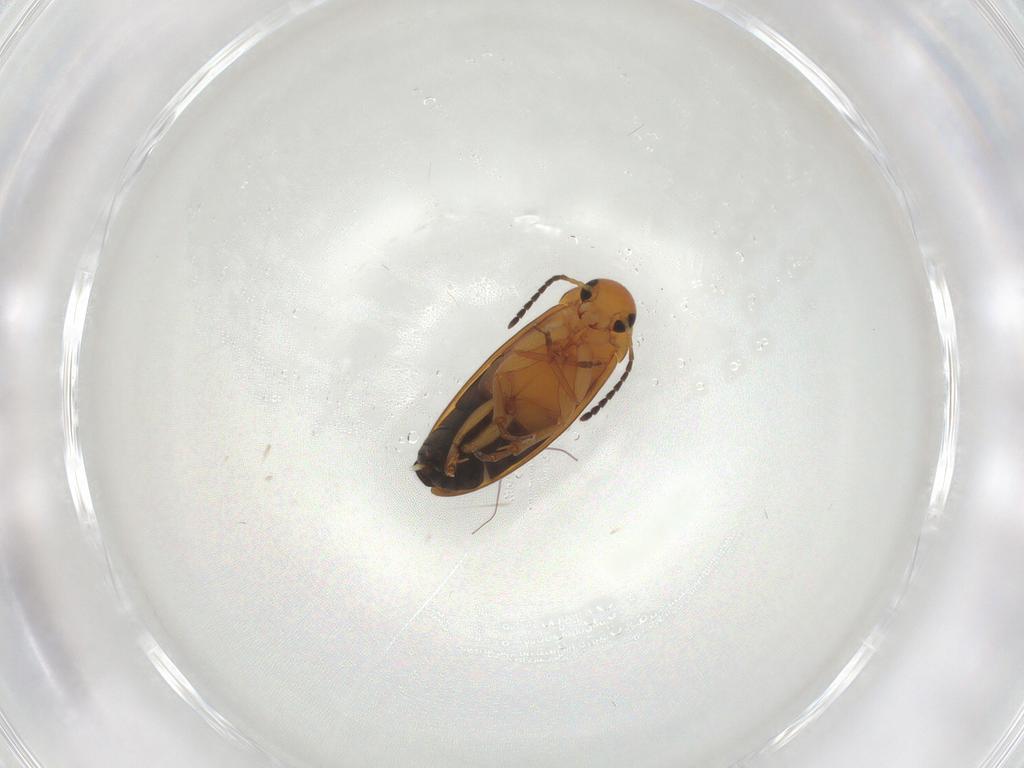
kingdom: Animalia
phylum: Arthropoda
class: Insecta
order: Coleoptera
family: Scraptiidae
